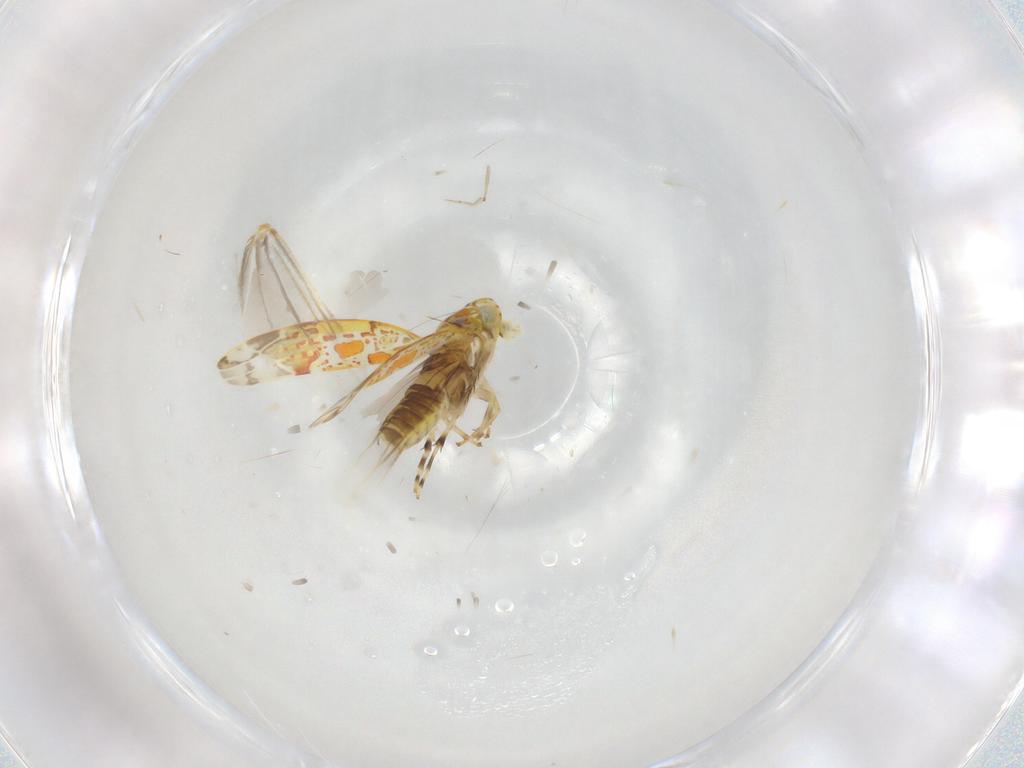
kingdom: Animalia
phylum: Arthropoda
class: Insecta
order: Hemiptera
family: Cicadellidae
